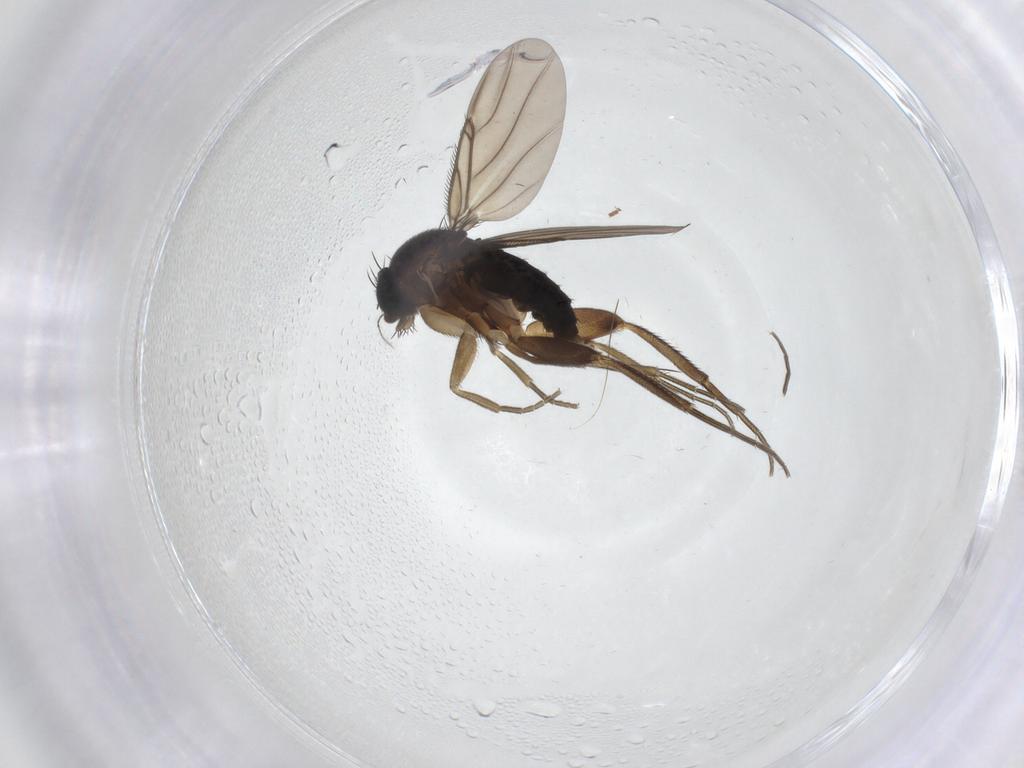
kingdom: Animalia
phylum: Arthropoda
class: Insecta
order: Diptera
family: Phoridae
